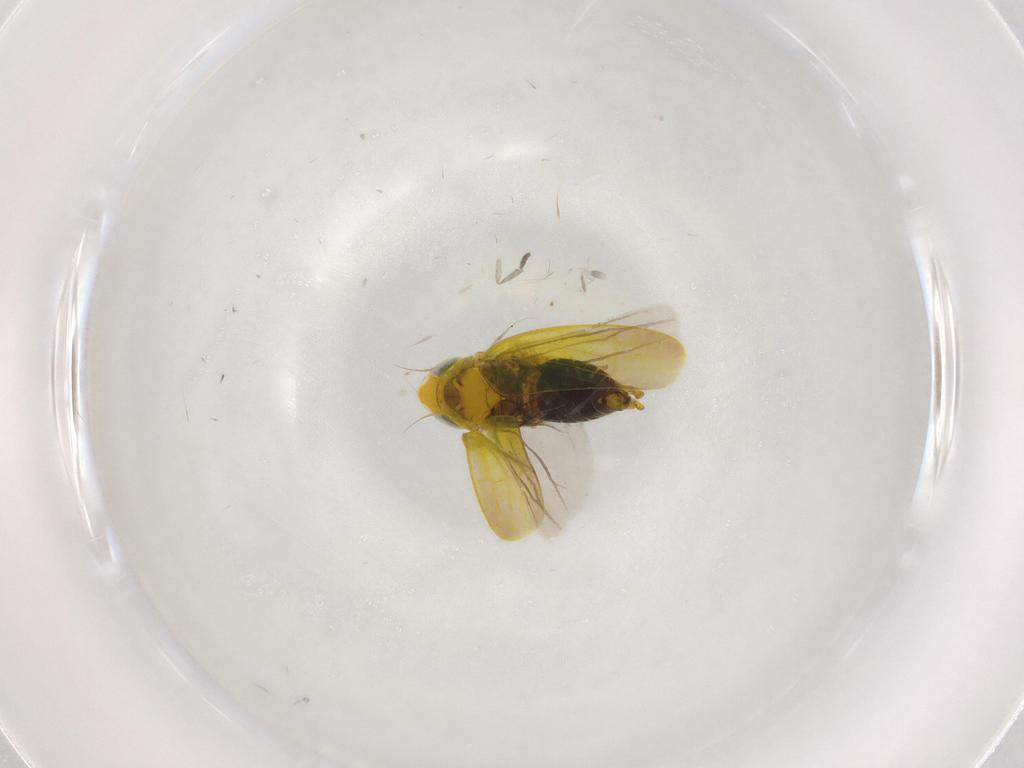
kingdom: Animalia
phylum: Arthropoda
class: Insecta
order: Hemiptera
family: Cicadellidae
